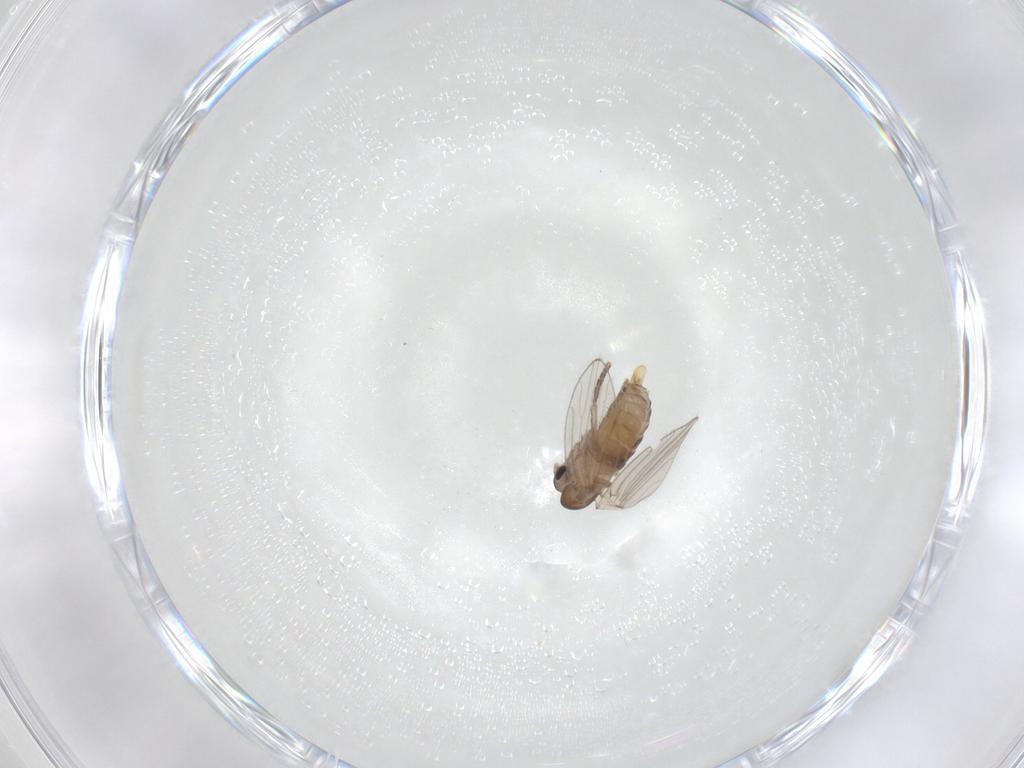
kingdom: Animalia
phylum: Arthropoda
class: Insecta
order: Diptera
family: Psychodidae
